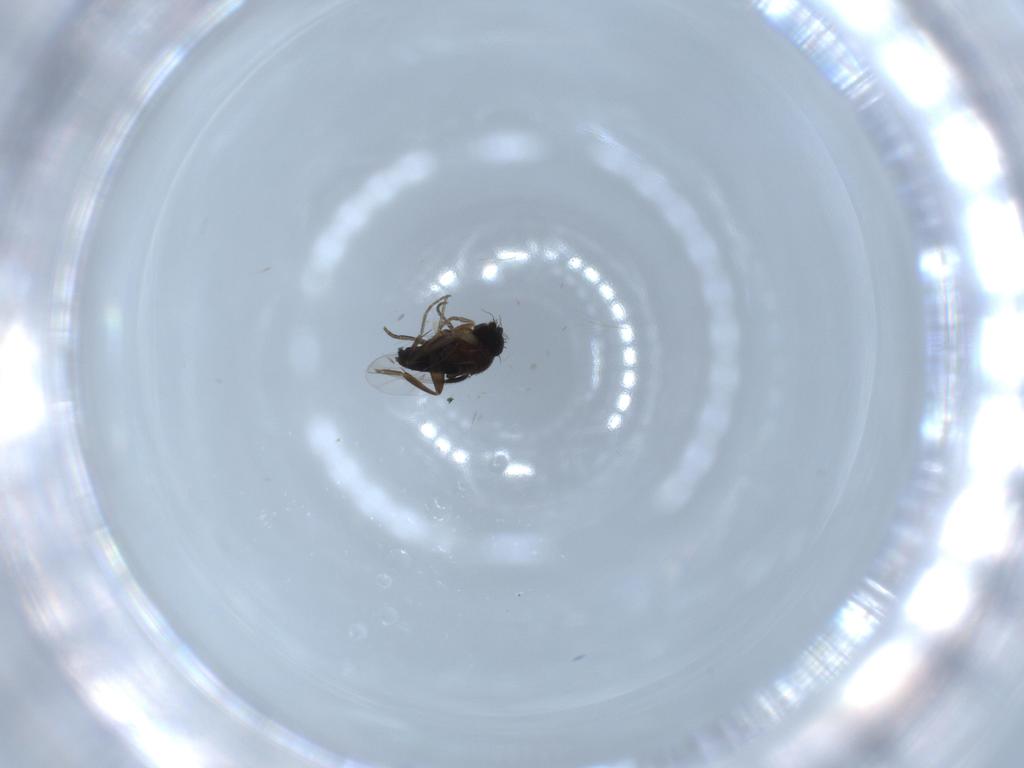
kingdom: Animalia
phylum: Arthropoda
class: Insecta
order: Diptera
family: Phoridae
